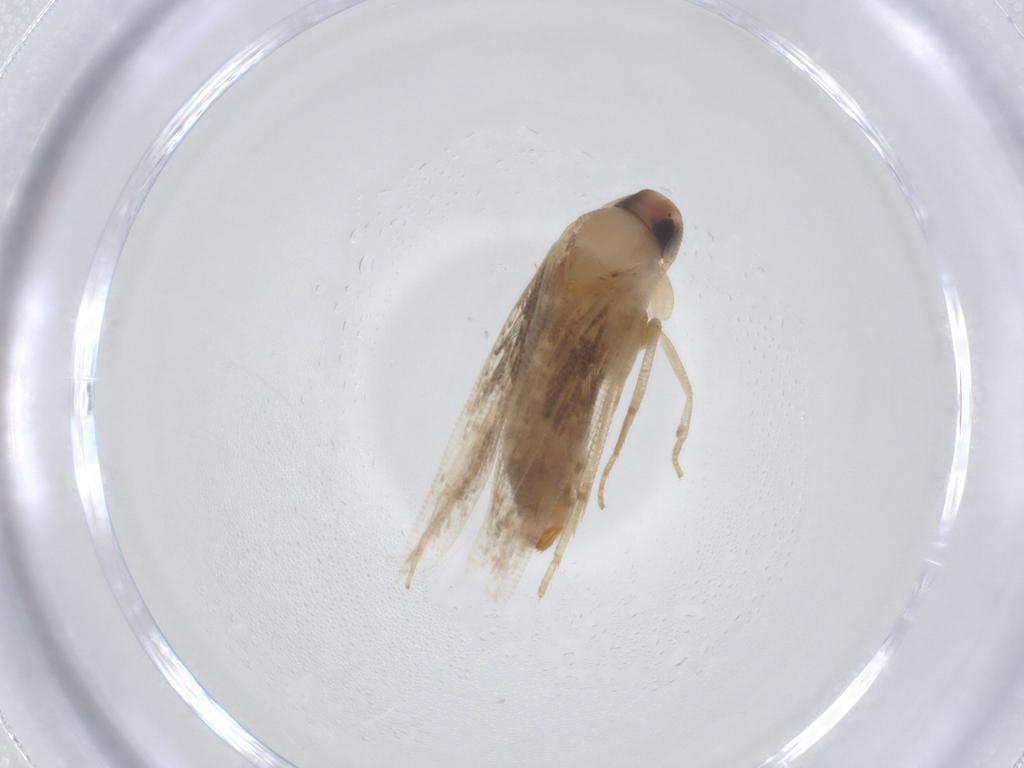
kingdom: Animalia
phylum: Arthropoda
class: Insecta
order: Lepidoptera
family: Cosmopterigidae
